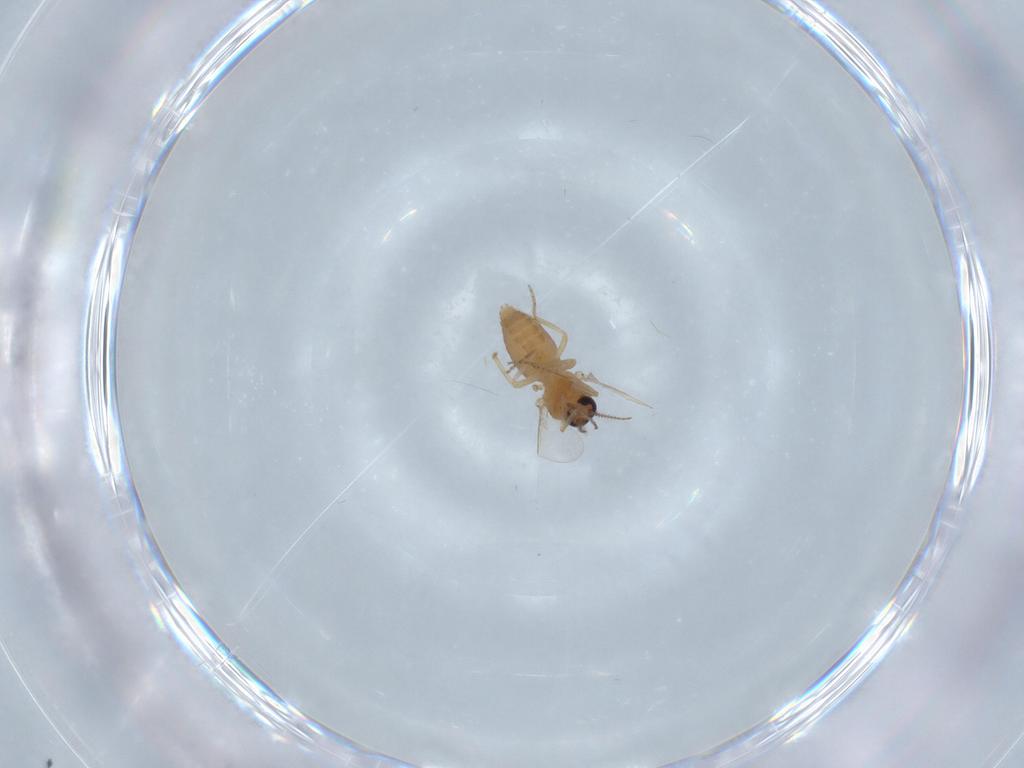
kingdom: Animalia
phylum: Arthropoda
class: Insecta
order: Diptera
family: Ceratopogonidae
